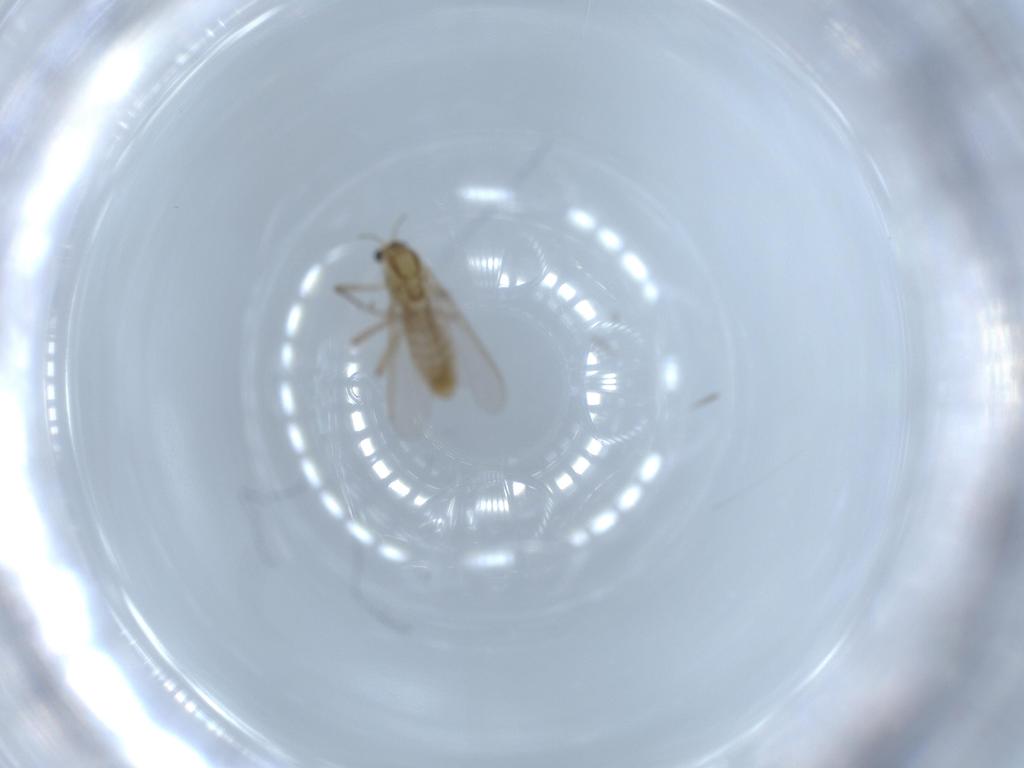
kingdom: Animalia
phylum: Arthropoda
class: Insecta
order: Diptera
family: Chironomidae
